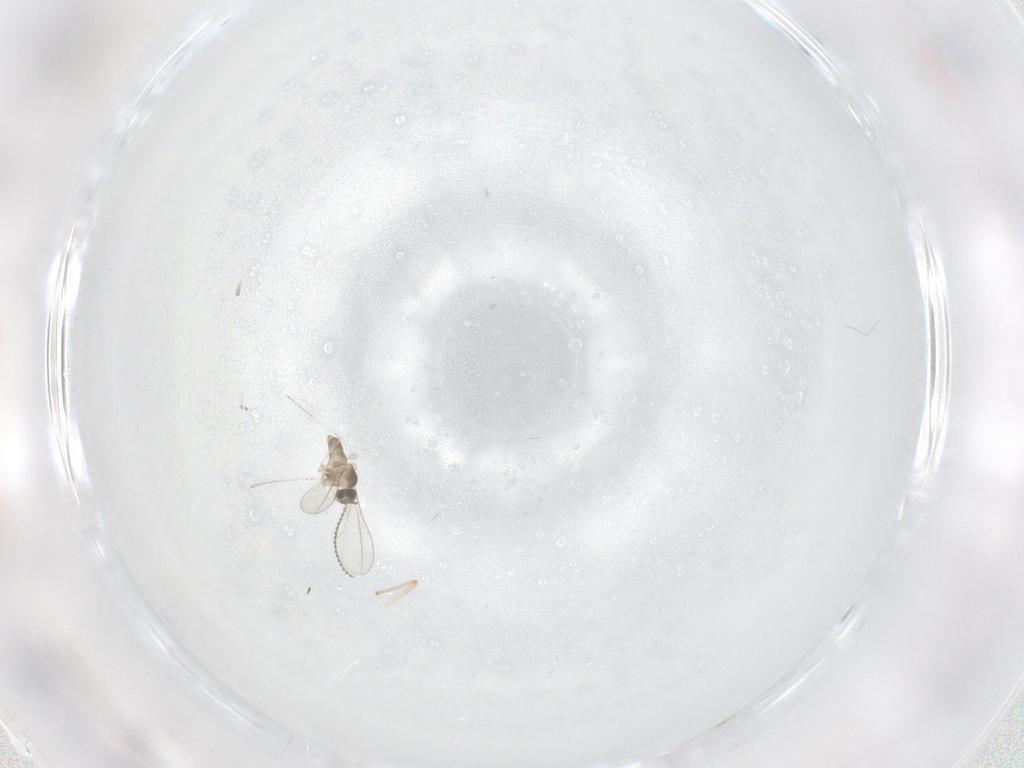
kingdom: Animalia
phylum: Arthropoda
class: Insecta
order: Diptera
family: Cecidomyiidae
